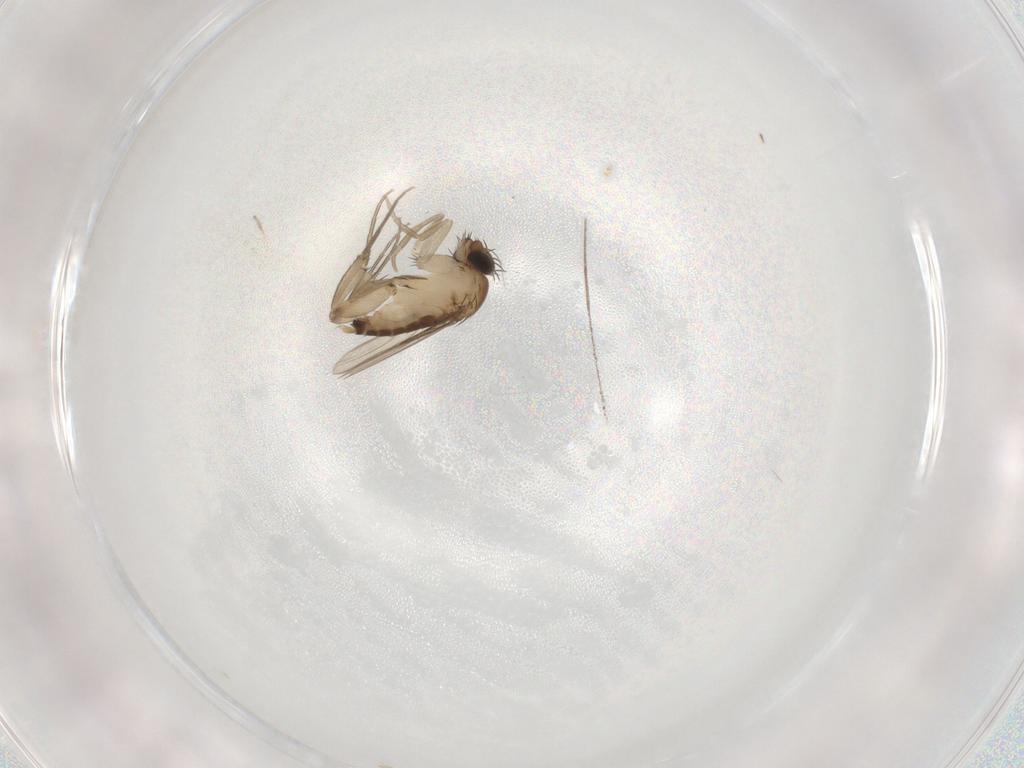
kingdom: Animalia
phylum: Arthropoda
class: Insecta
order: Diptera
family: Phoridae
